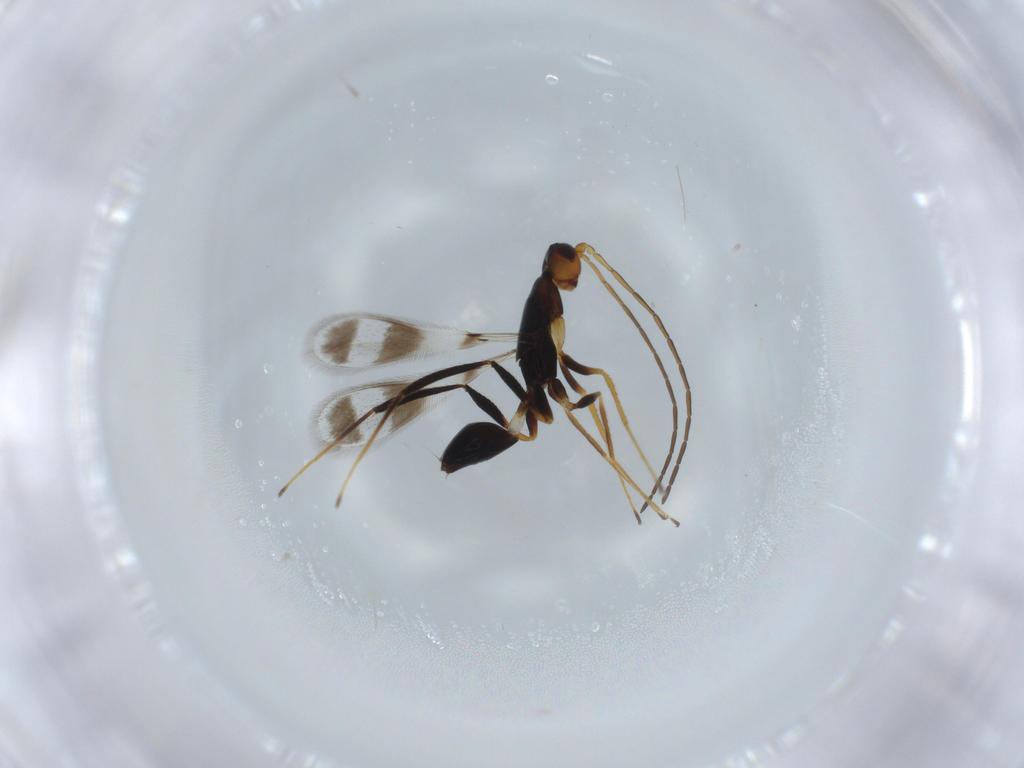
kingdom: Animalia
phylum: Arthropoda
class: Insecta
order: Hymenoptera
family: Mymaridae
